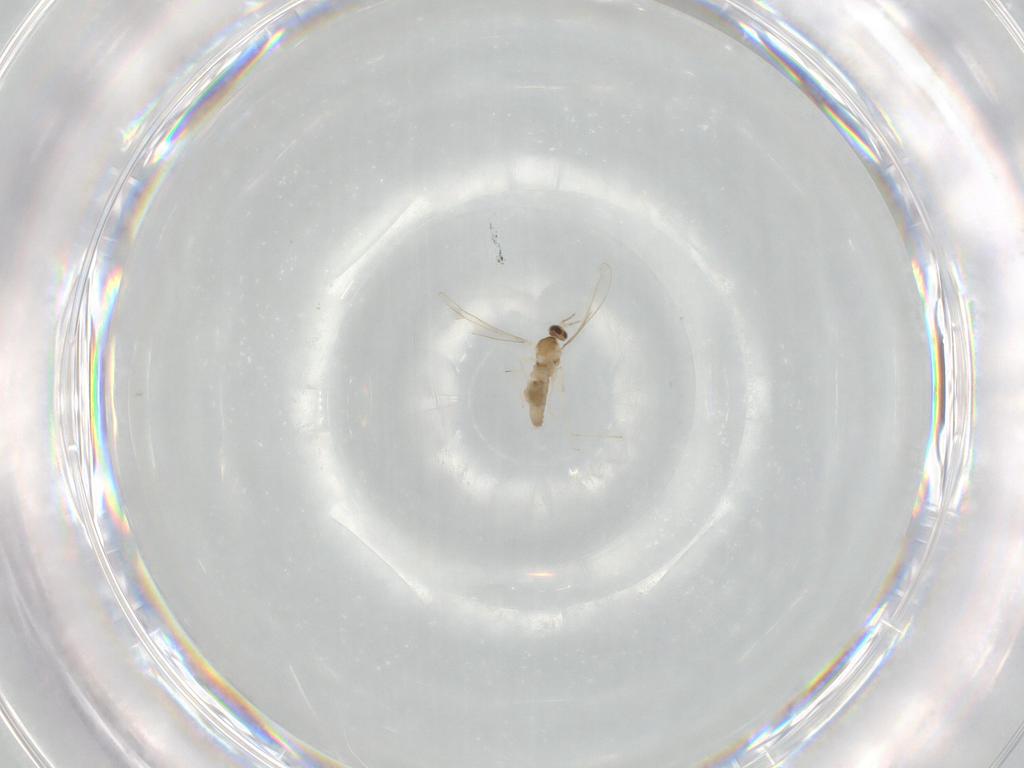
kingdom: Animalia
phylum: Arthropoda
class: Insecta
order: Diptera
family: Cecidomyiidae
